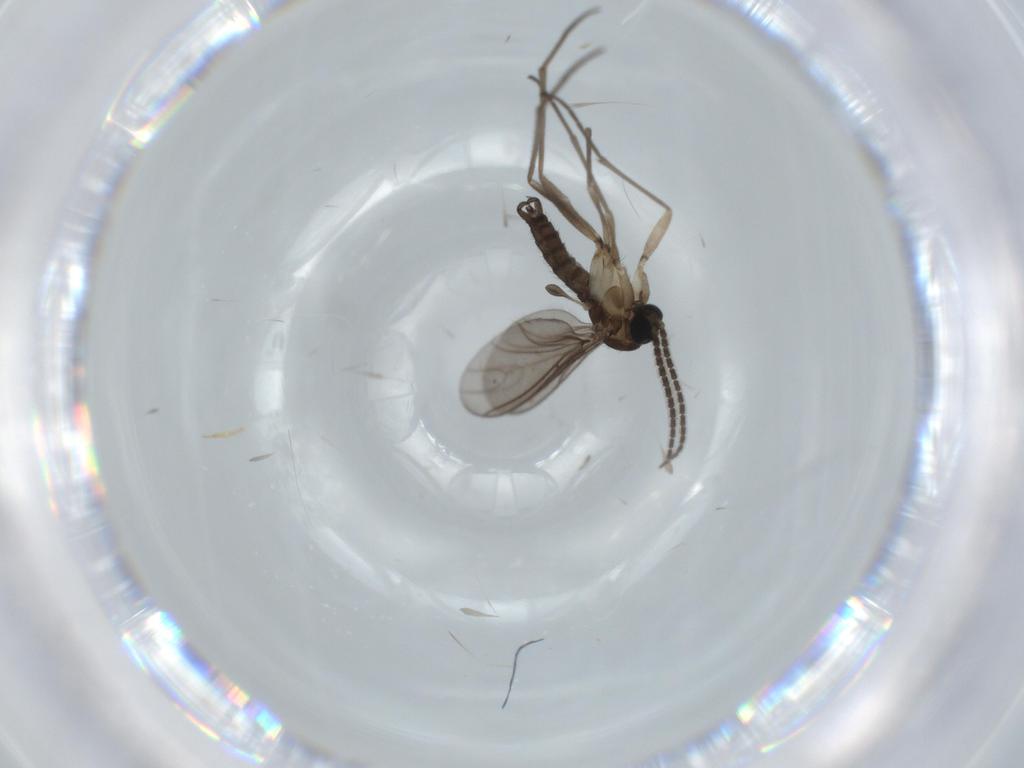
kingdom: Animalia
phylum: Arthropoda
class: Insecta
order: Diptera
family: Sciaridae
